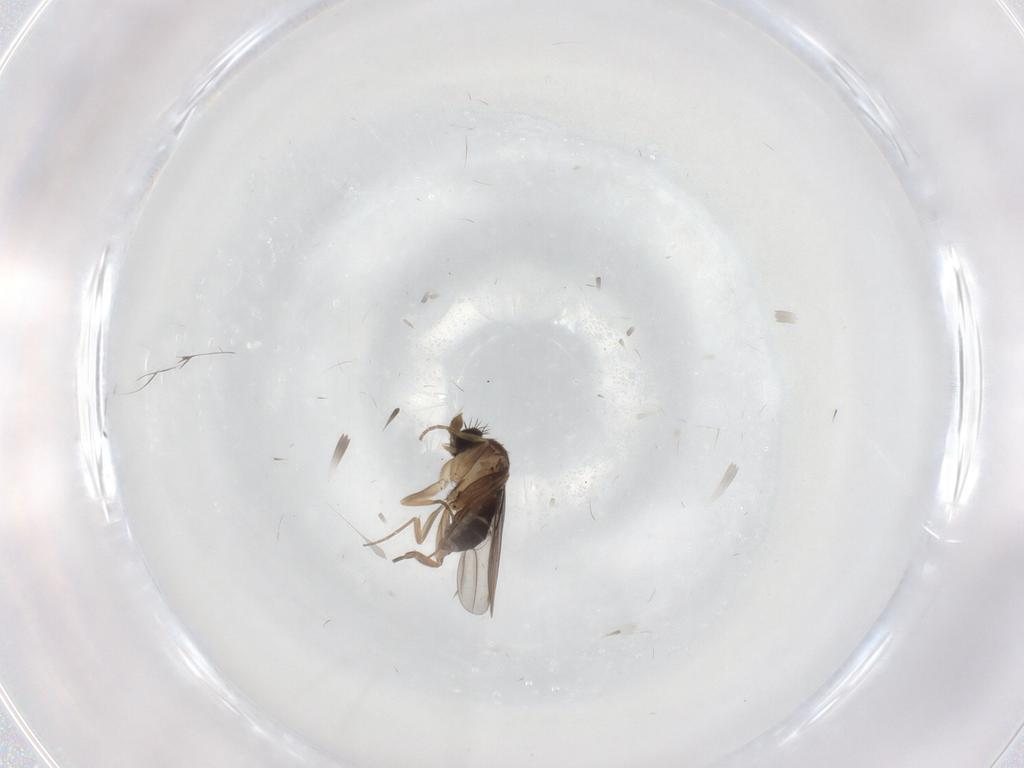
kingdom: Animalia
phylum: Arthropoda
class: Insecta
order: Diptera
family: Phoridae
